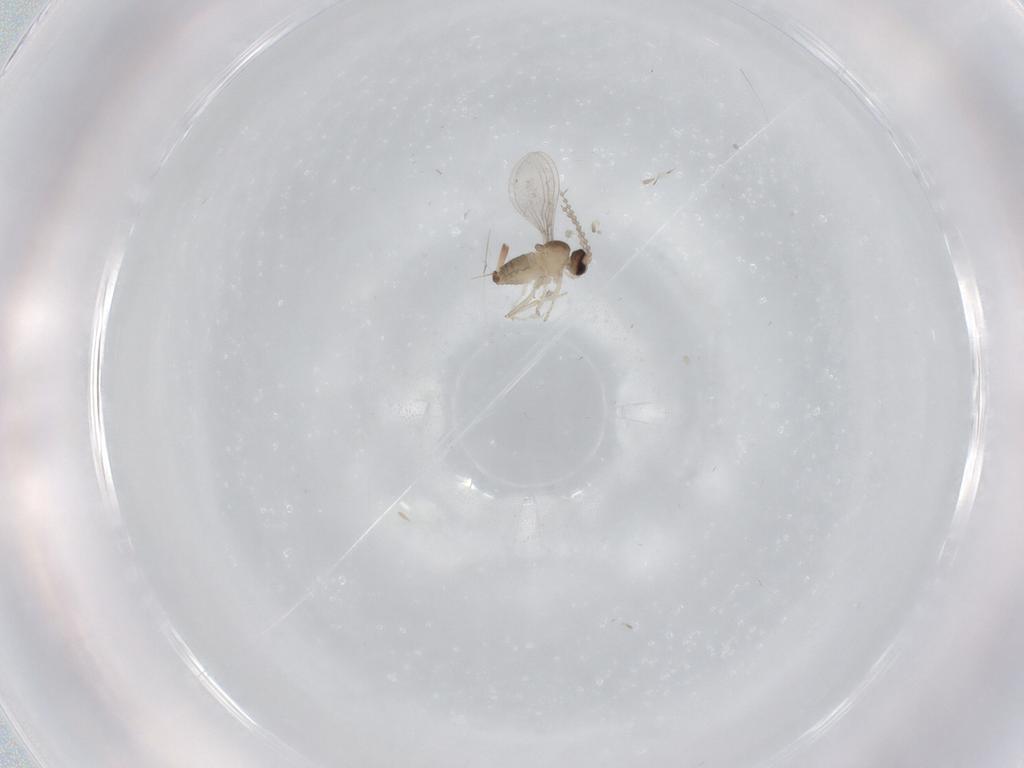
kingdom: Animalia
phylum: Arthropoda
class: Insecta
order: Diptera
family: Cecidomyiidae
